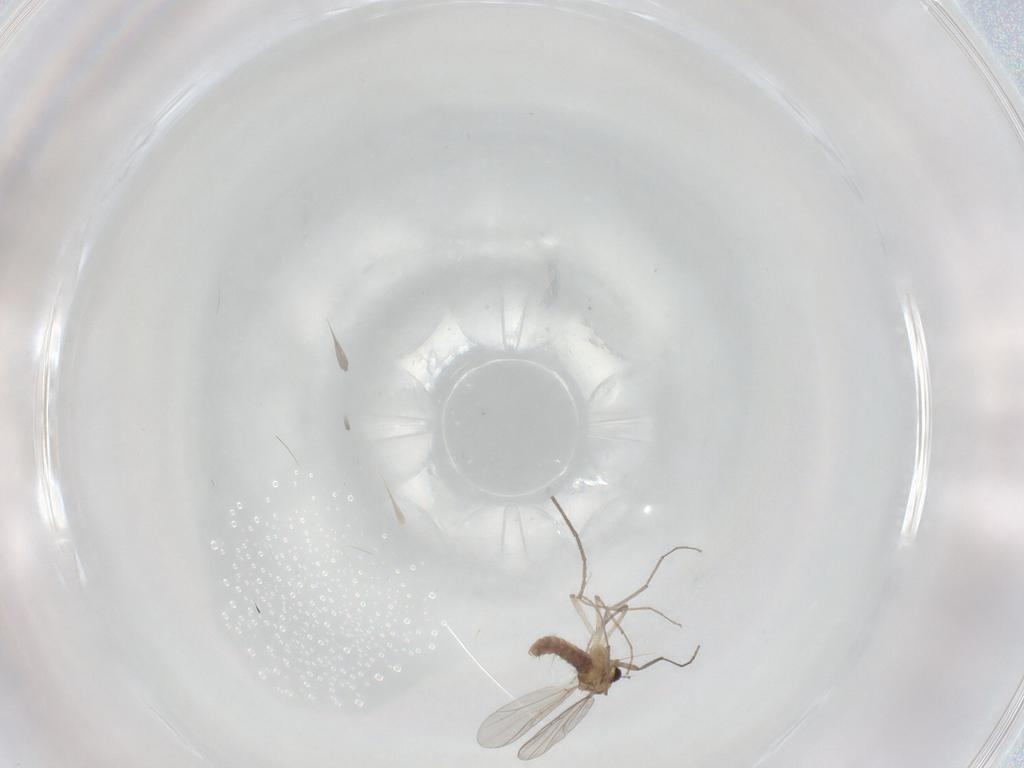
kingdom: Animalia
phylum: Arthropoda
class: Insecta
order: Diptera
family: Chironomidae
